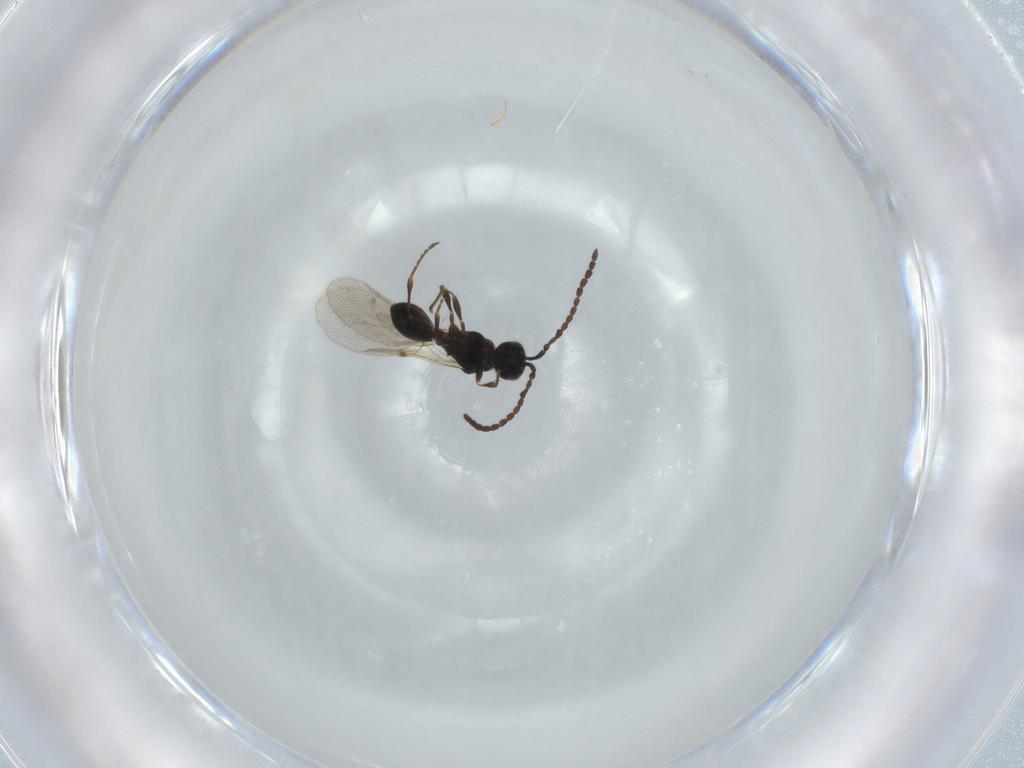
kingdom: Animalia
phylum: Arthropoda
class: Insecta
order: Hymenoptera
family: Diapriidae
